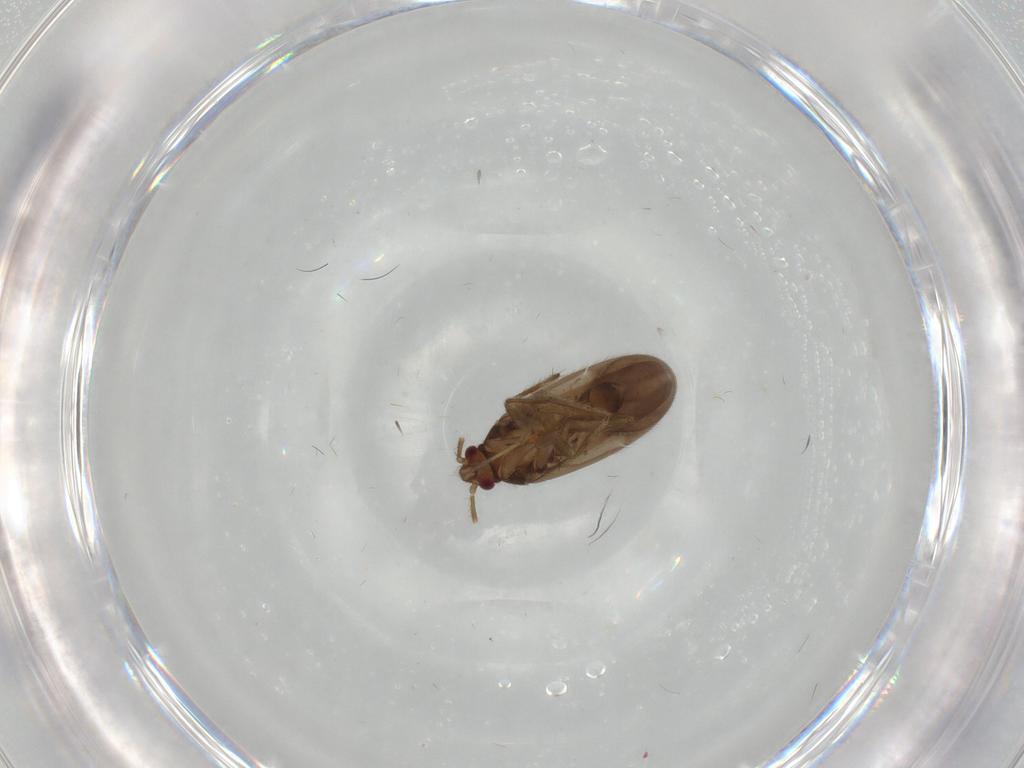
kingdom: Animalia
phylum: Arthropoda
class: Insecta
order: Hemiptera
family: Ceratocombidae
